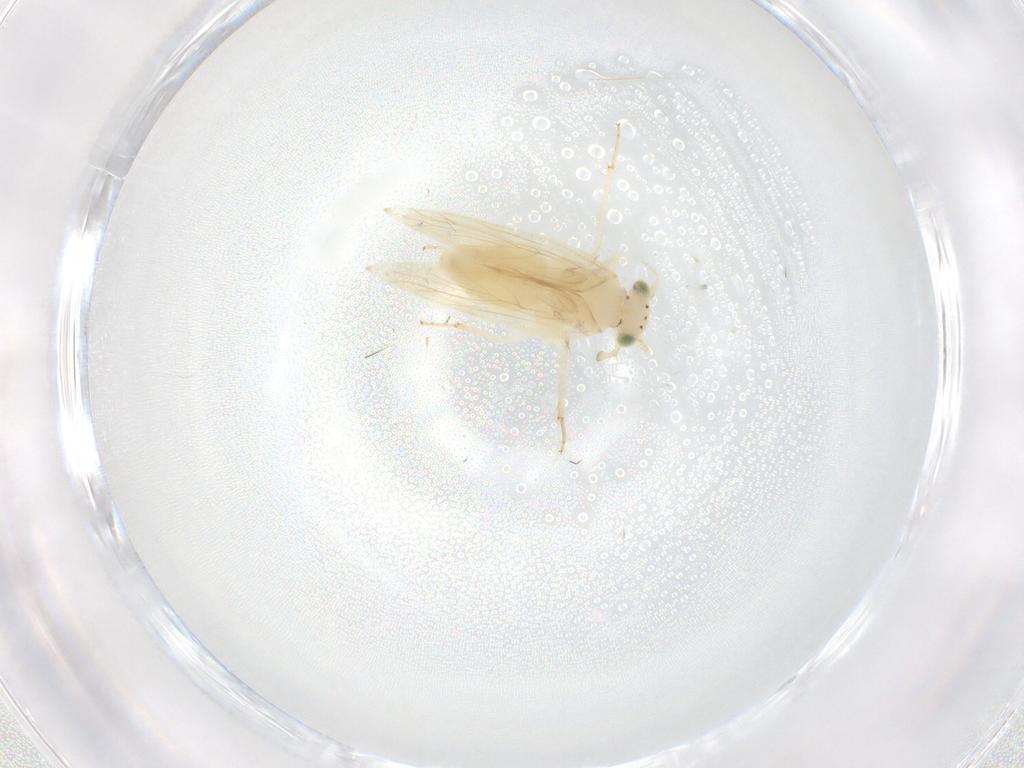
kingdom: Animalia
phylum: Arthropoda
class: Insecta
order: Psocodea
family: Lepidopsocidae
